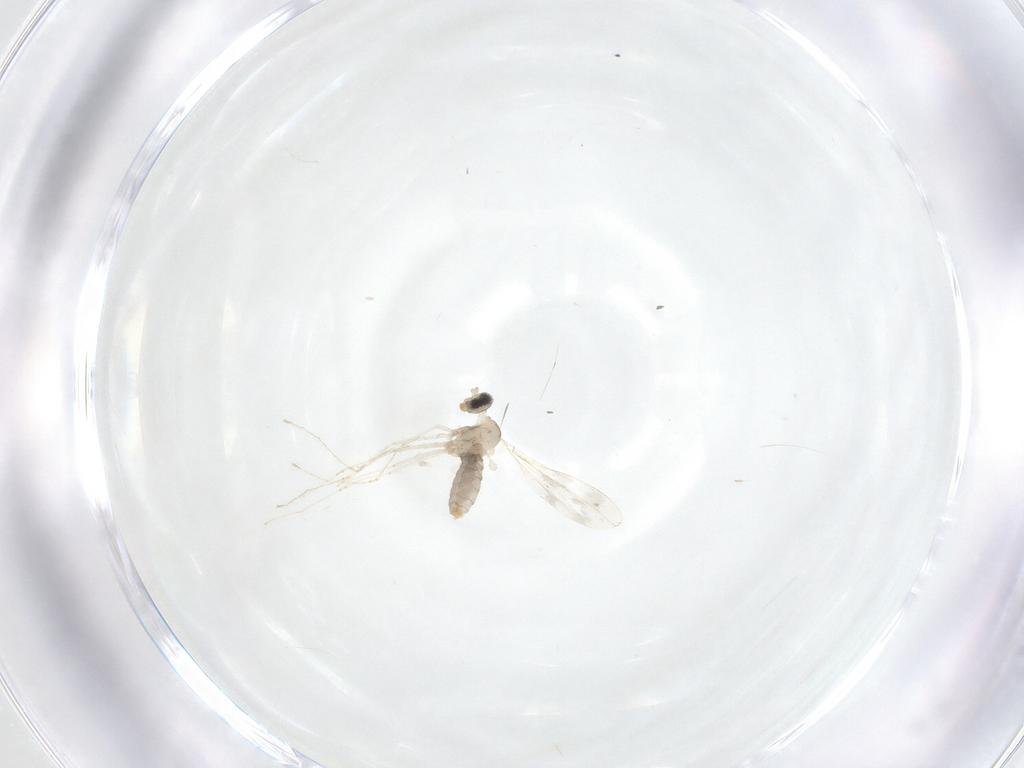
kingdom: Animalia
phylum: Arthropoda
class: Insecta
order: Diptera
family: Cecidomyiidae
